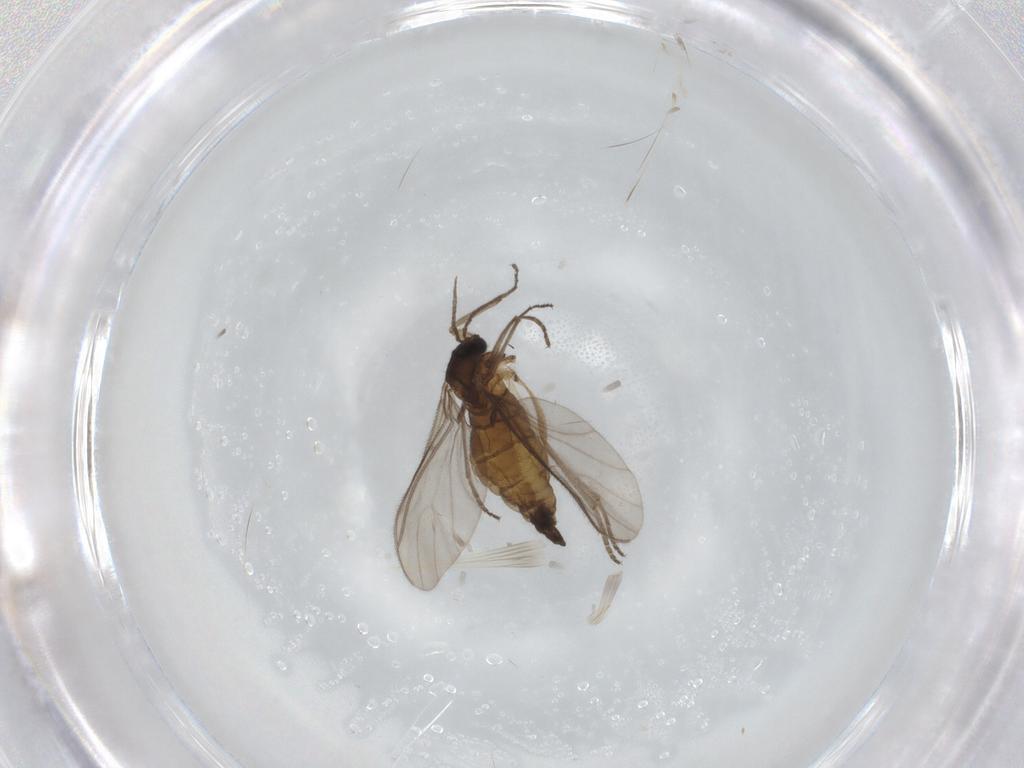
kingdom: Animalia
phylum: Arthropoda
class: Insecta
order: Diptera
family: Sciaridae
